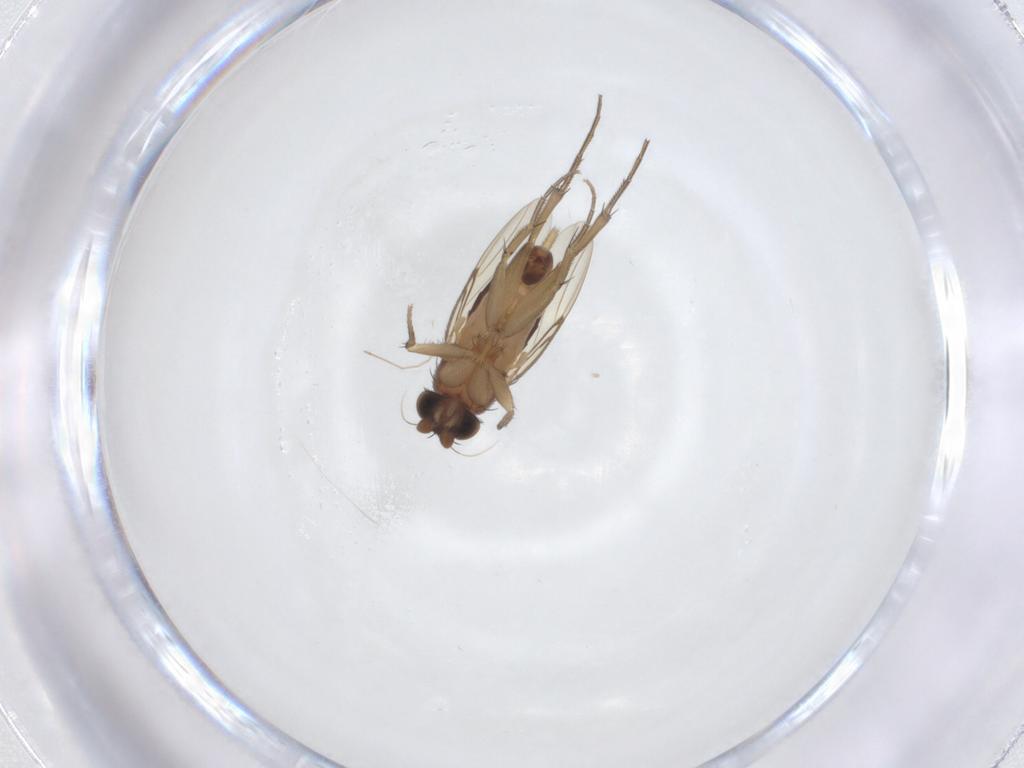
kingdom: Animalia
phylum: Arthropoda
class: Insecta
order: Diptera
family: Phoridae
